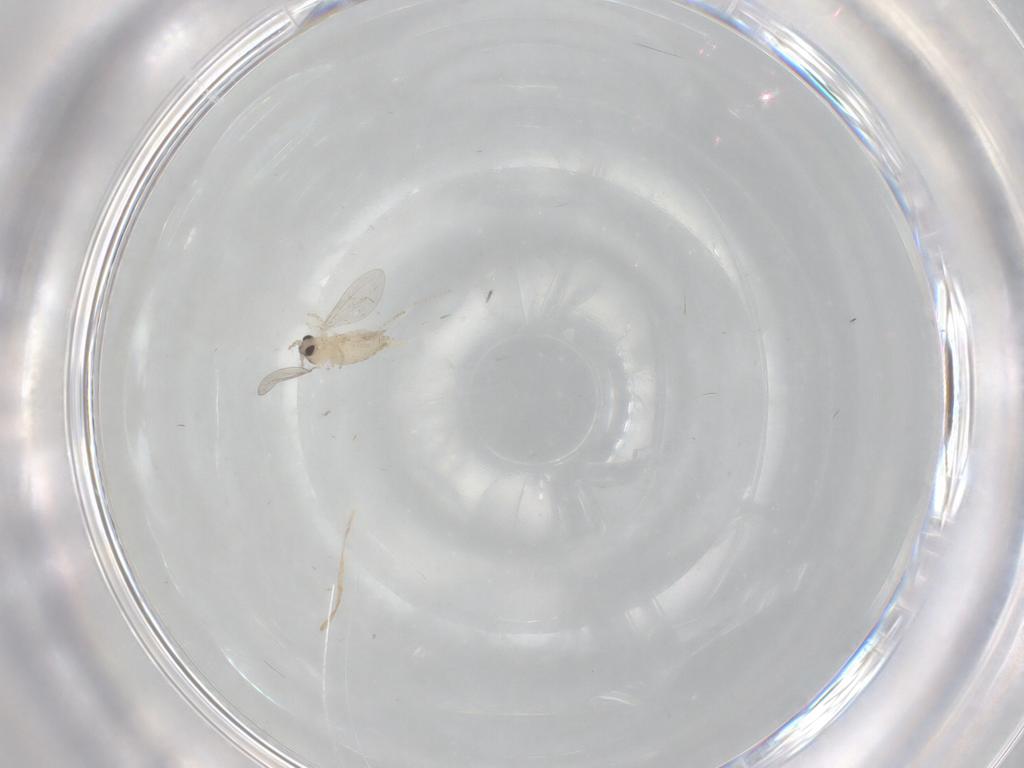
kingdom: Animalia
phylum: Arthropoda
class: Insecta
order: Diptera
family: Cecidomyiidae
